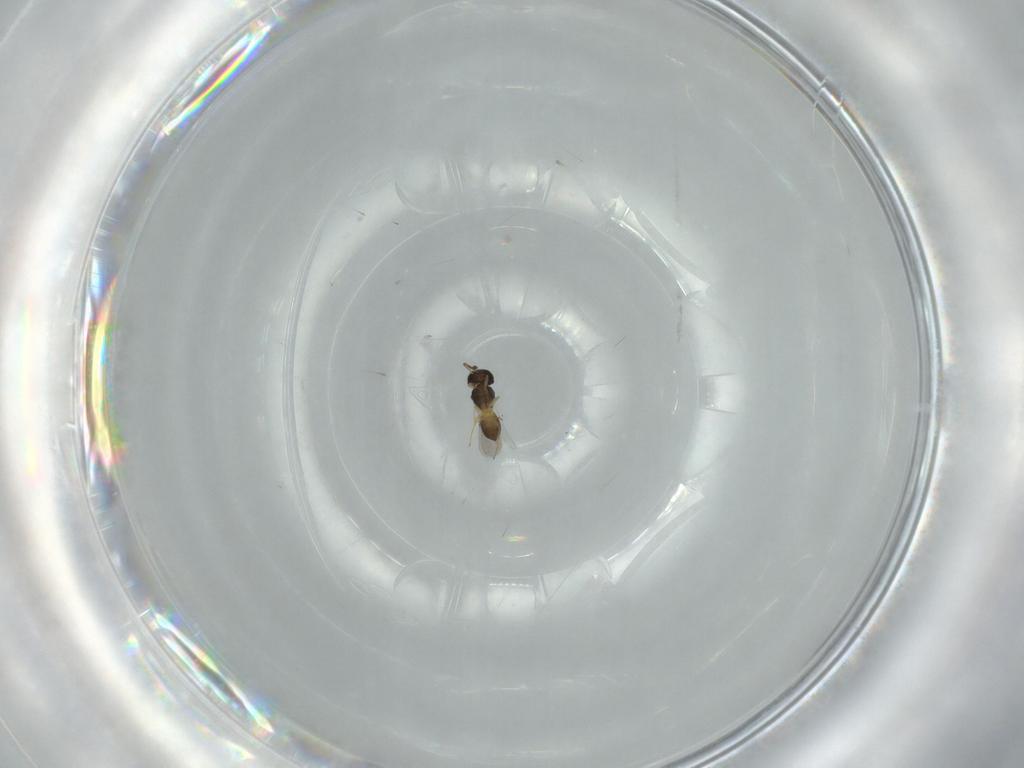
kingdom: Animalia
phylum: Arthropoda
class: Insecta
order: Hymenoptera
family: Scelionidae
